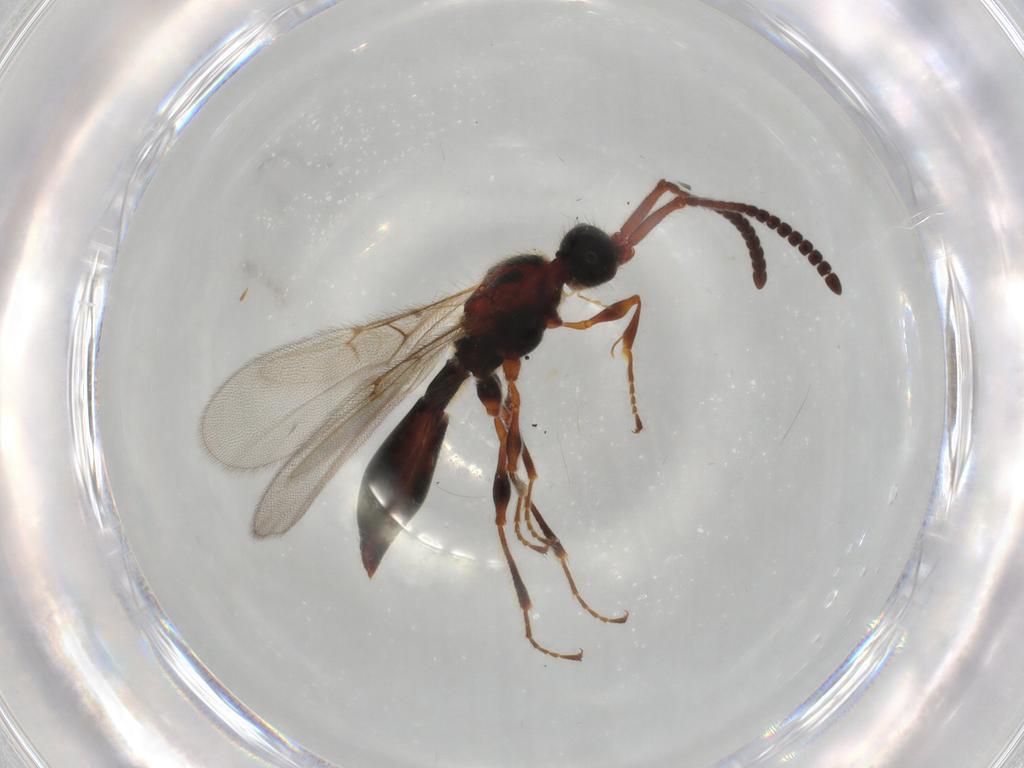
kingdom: Animalia
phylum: Arthropoda
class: Insecta
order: Hymenoptera
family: Diapriidae
